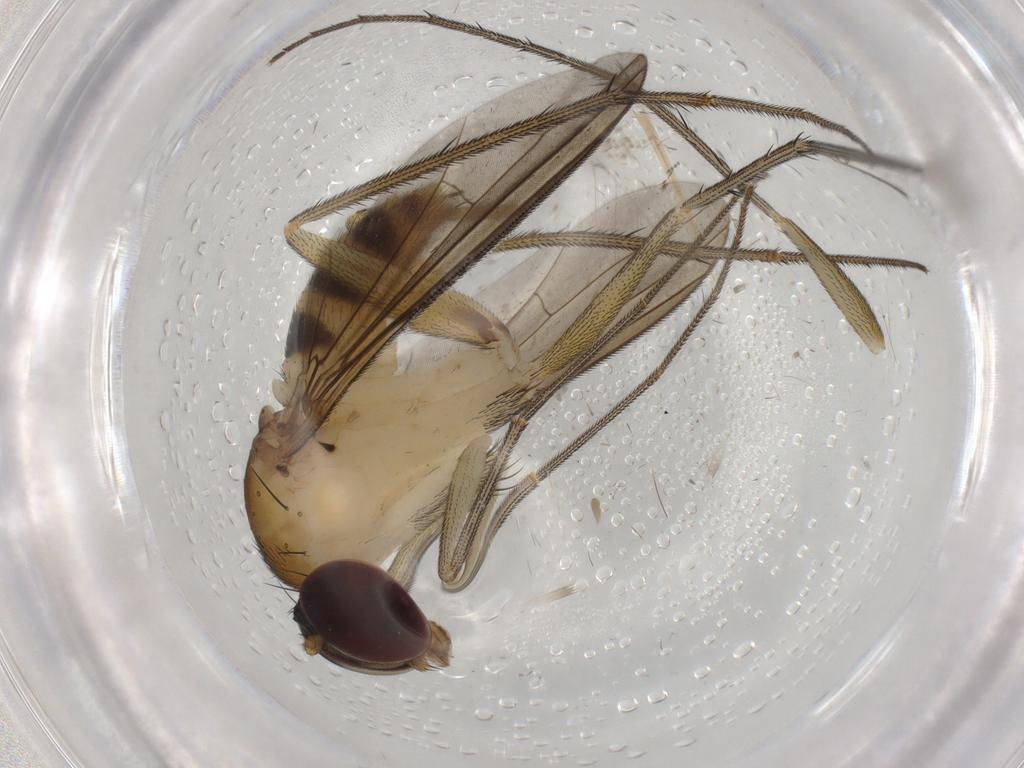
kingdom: Animalia
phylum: Arthropoda
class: Insecta
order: Diptera
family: Dolichopodidae
